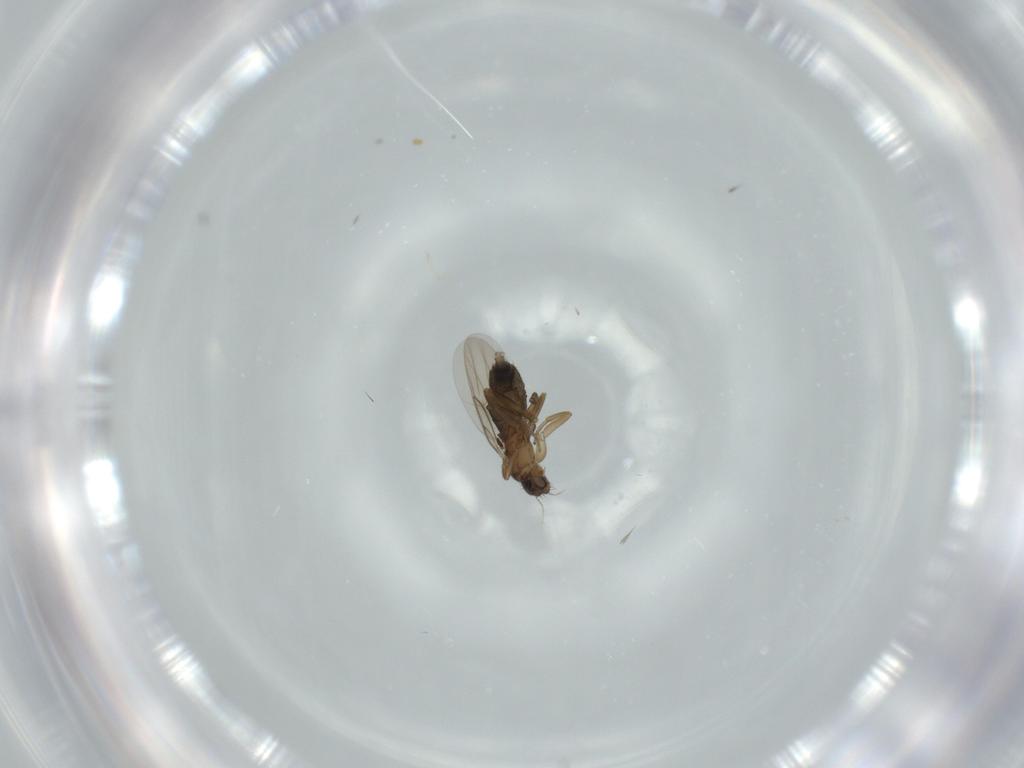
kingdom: Animalia
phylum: Arthropoda
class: Insecta
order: Diptera
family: Phoridae
